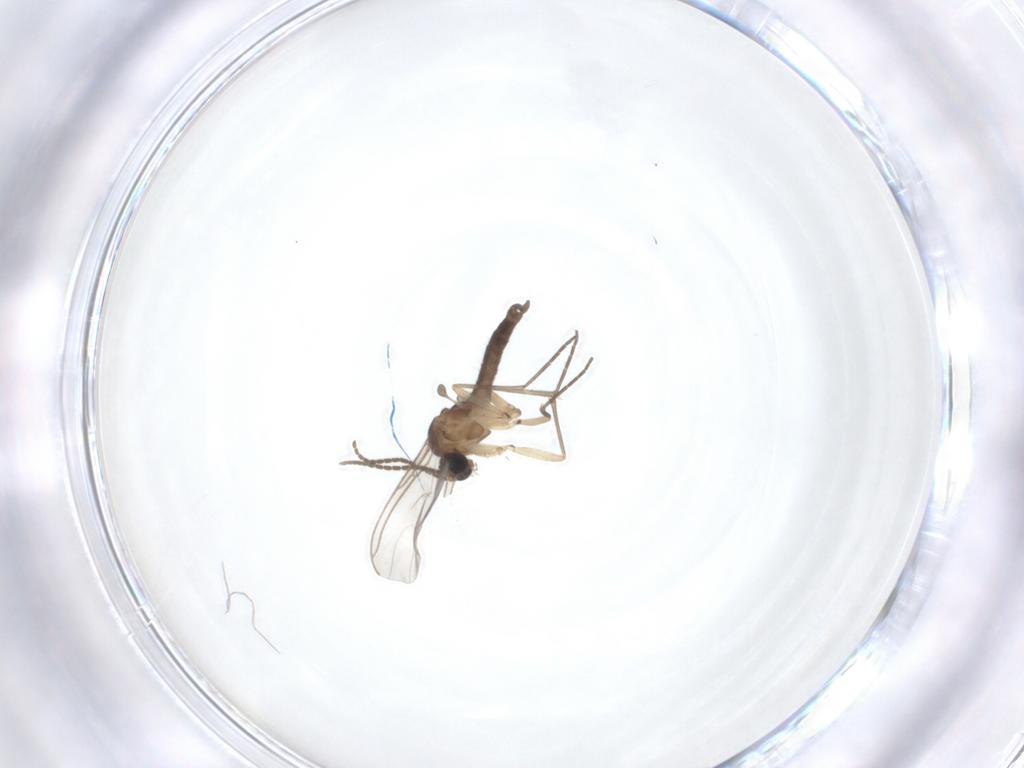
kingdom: Animalia
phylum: Arthropoda
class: Insecta
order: Diptera
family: Sciaridae
